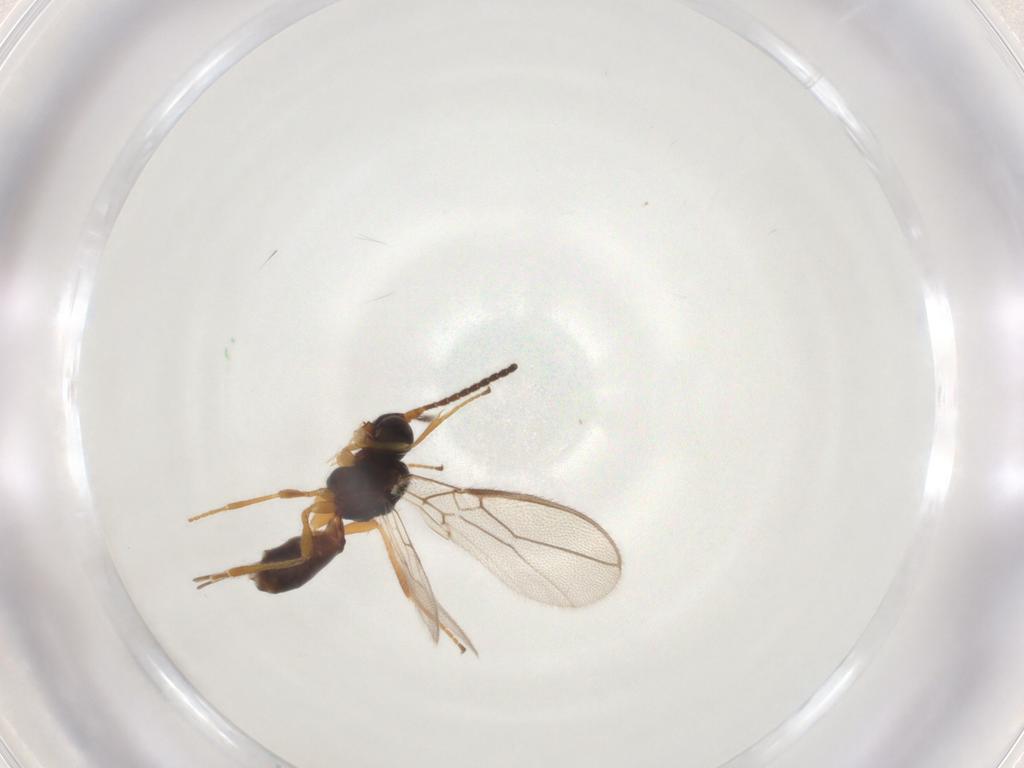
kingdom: Animalia
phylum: Arthropoda
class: Insecta
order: Hymenoptera
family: Braconidae
